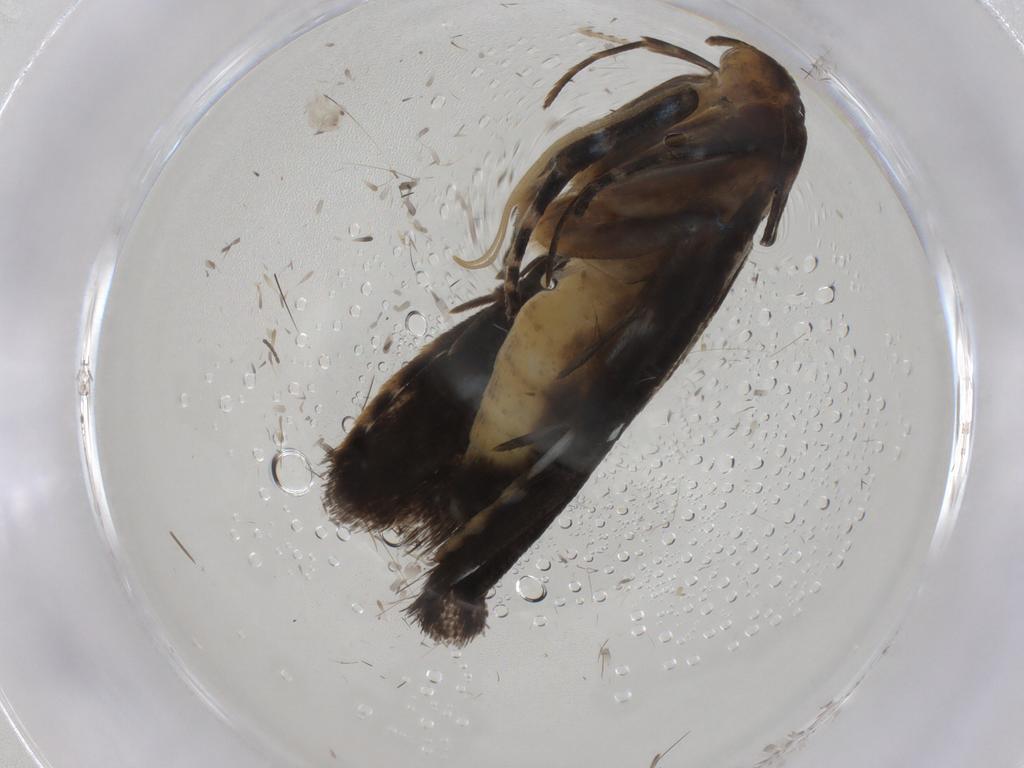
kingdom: Animalia
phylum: Arthropoda
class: Insecta
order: Lepidoptera
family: Gelechiidae
